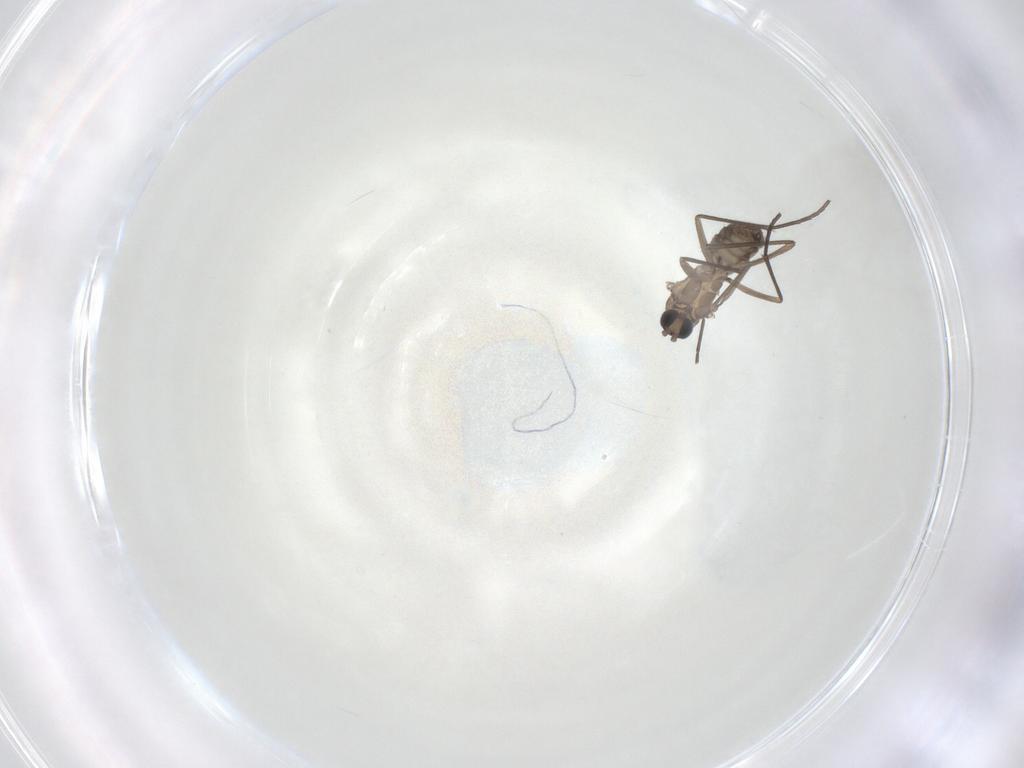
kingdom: Animalia
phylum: Arthropoda
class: Insecta
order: Diptera
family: Sciaridae
